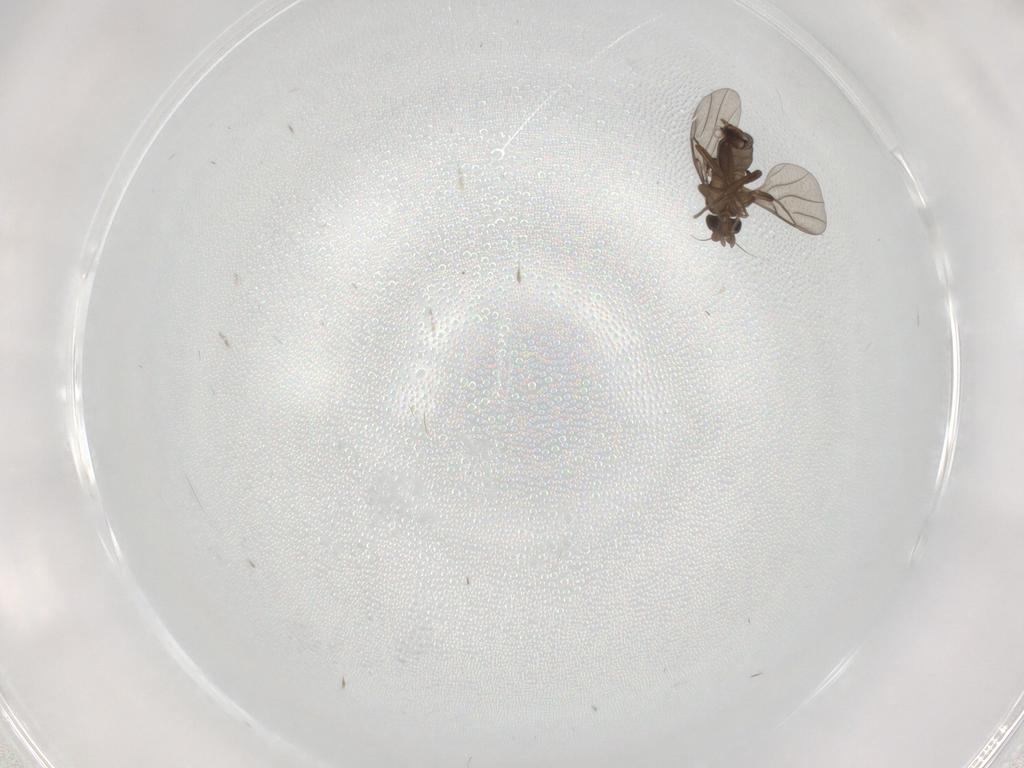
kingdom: Animalia
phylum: Arthropoda
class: Insecta
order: Diptera
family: Cecidomyiidae
